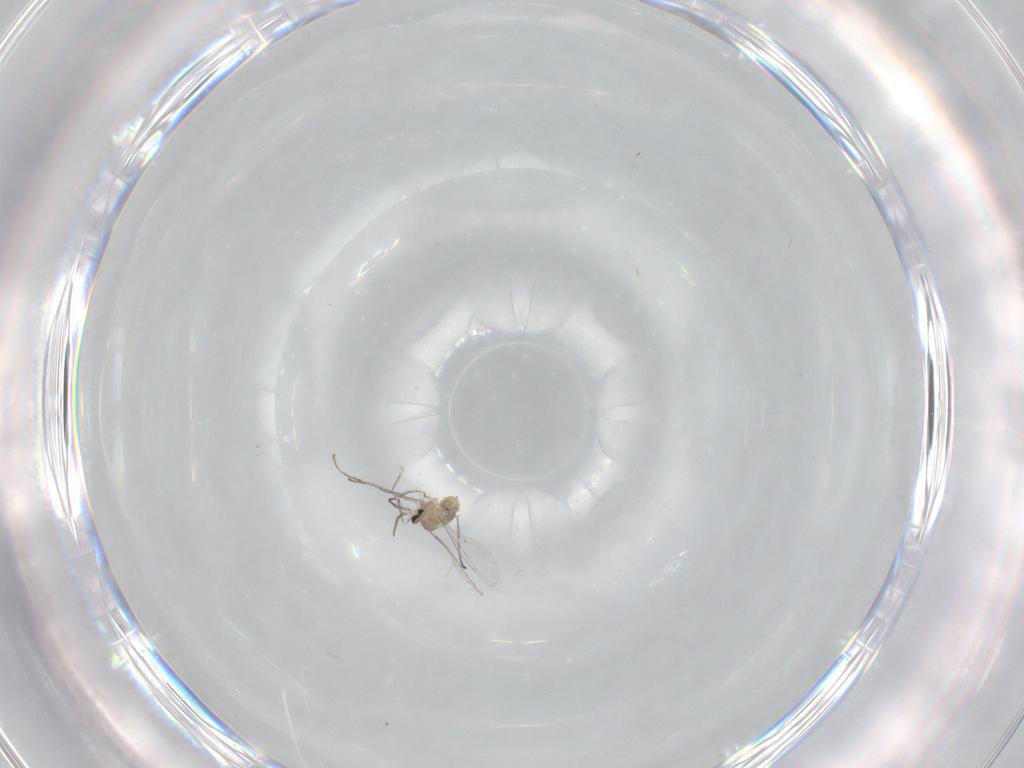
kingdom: Animalia
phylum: Arthropoda
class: Insecta
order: Diptera
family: Cecidomyiidae
